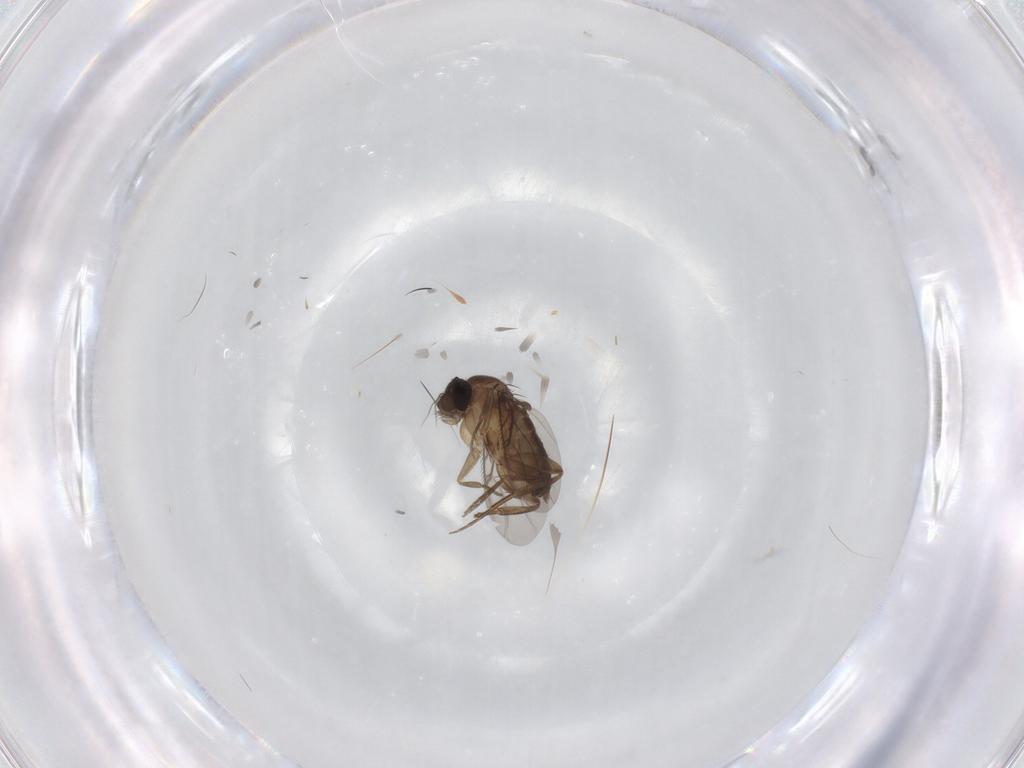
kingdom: Animalia
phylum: Arthropoda
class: Insecta
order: Diptera
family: Phoridae
